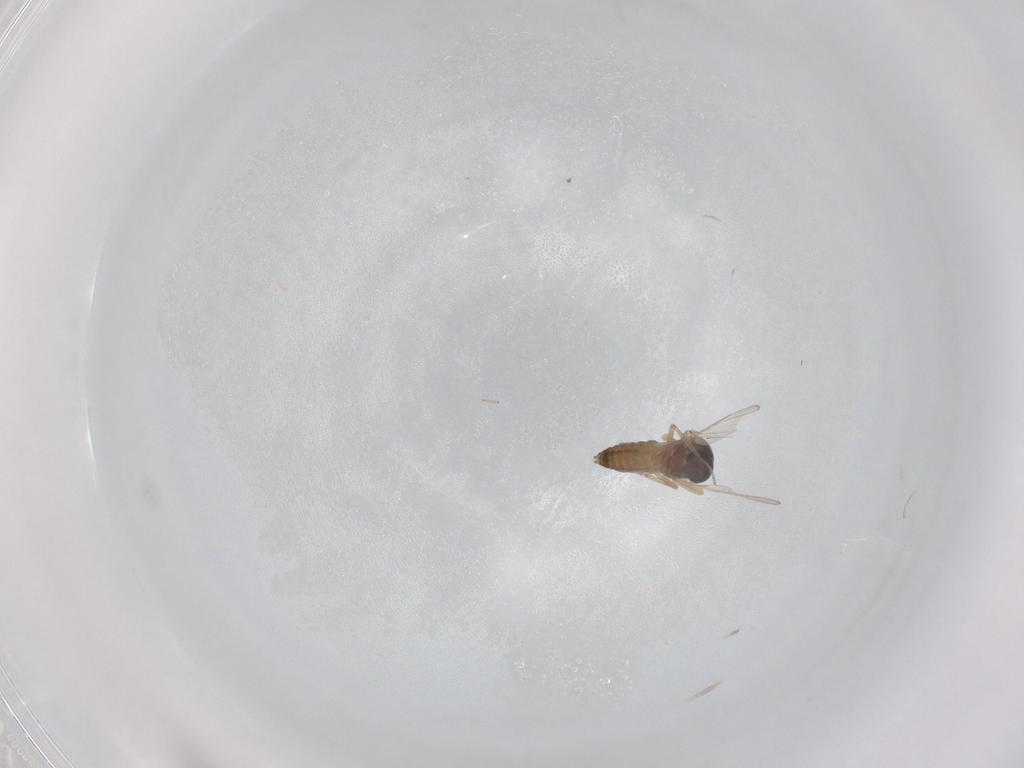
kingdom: Animalia
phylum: Arthropoda
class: Insecta
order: Diptera
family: Ceratopogonidae
